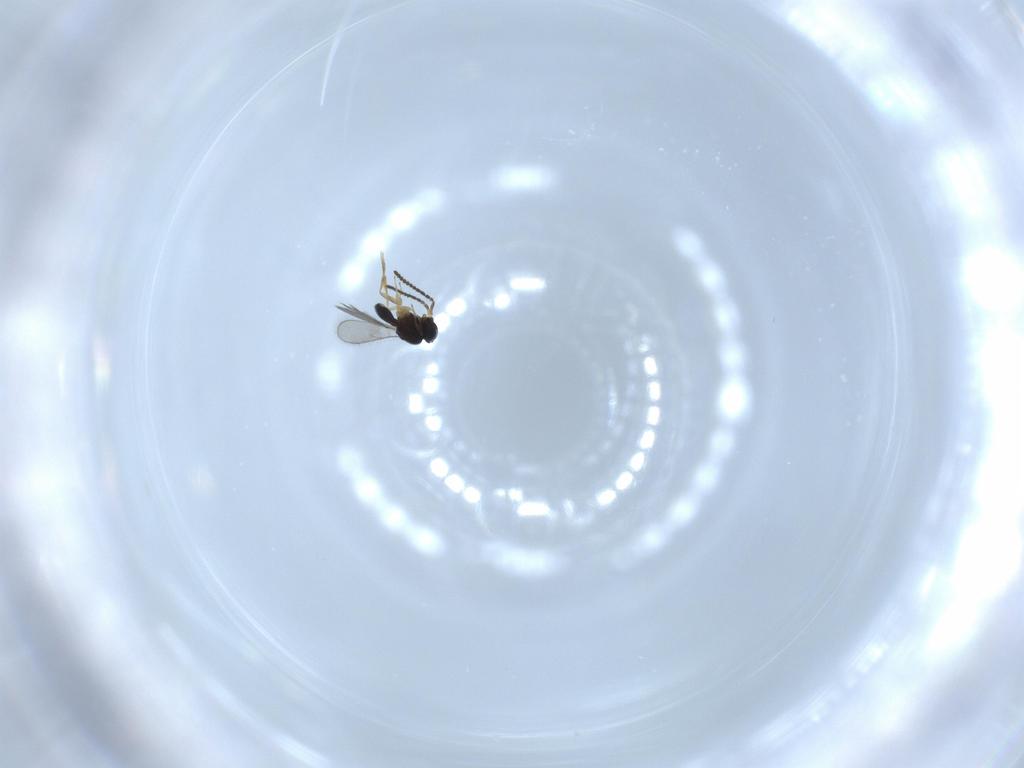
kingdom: Animalia
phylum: Arthropoda
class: Insecta
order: Hymenoptera
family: Scelionidae
